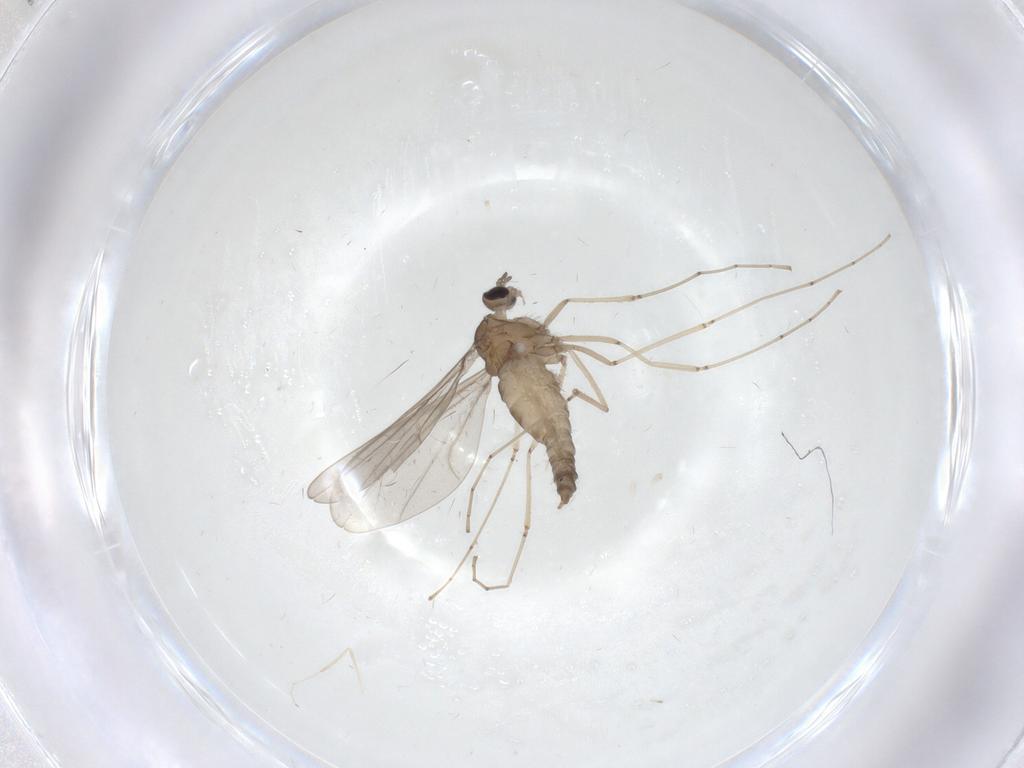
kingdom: Animalia
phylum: Arthropoda
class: Insecta
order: Diptera
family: Cecidomyiidae
